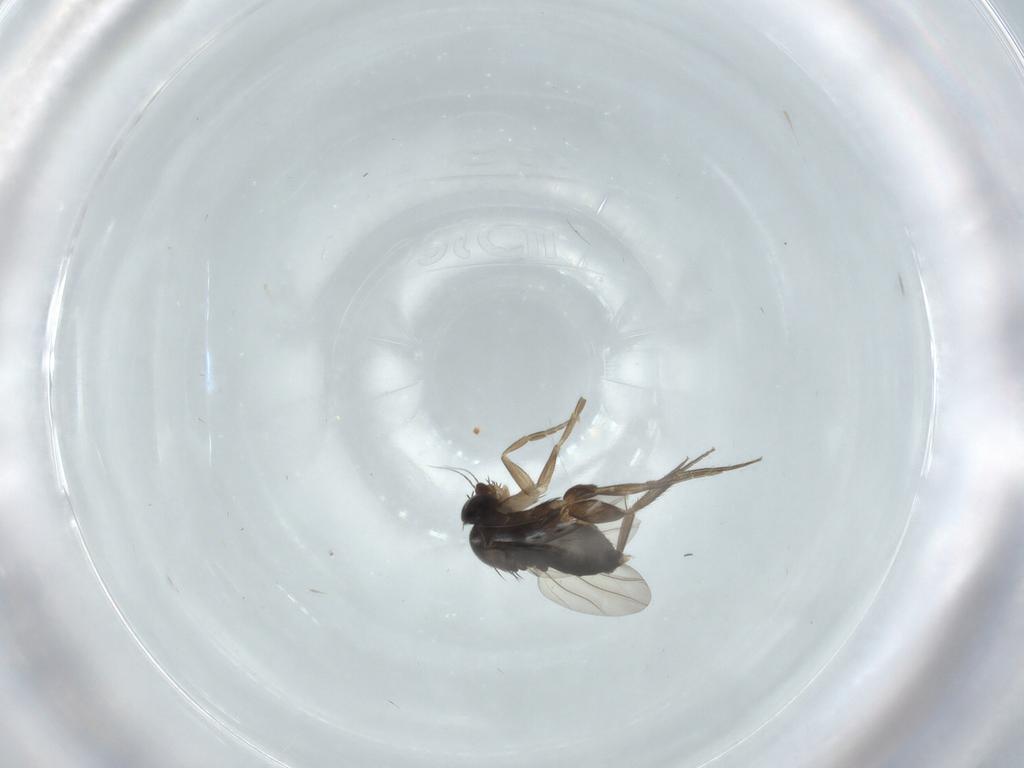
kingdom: Animalia
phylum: Arthropoda
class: Insecta
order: Diptera
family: Phoridae
